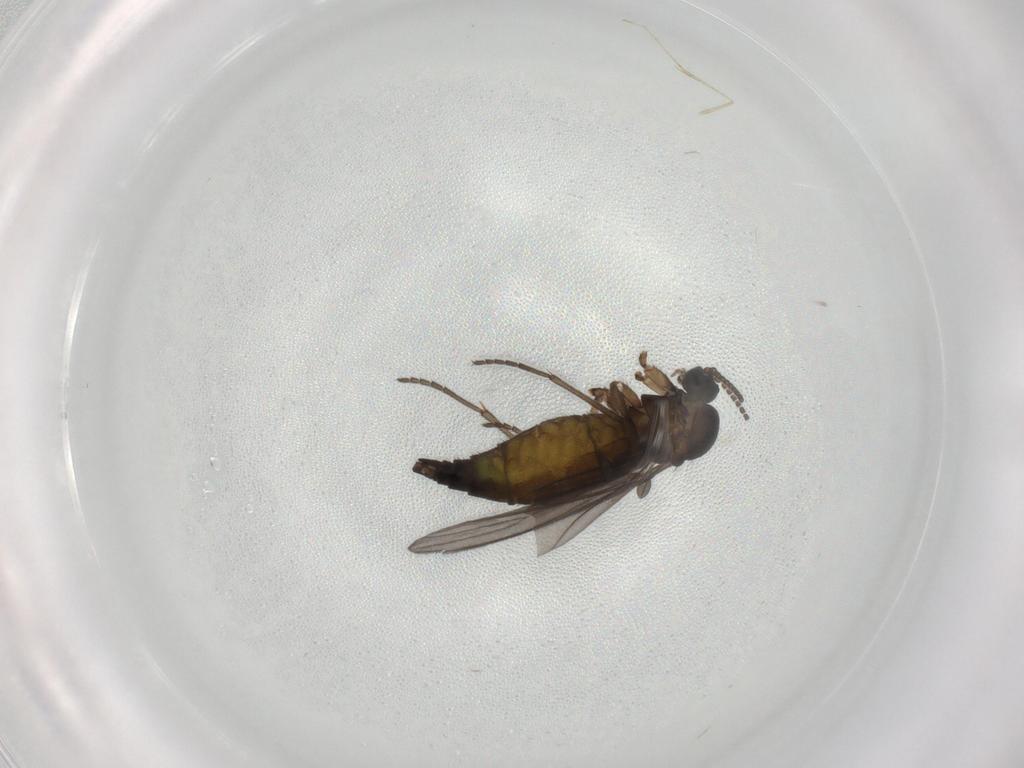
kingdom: Animalia
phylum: Arthropoda
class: Insecta
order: Diptera
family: Sciaridae
